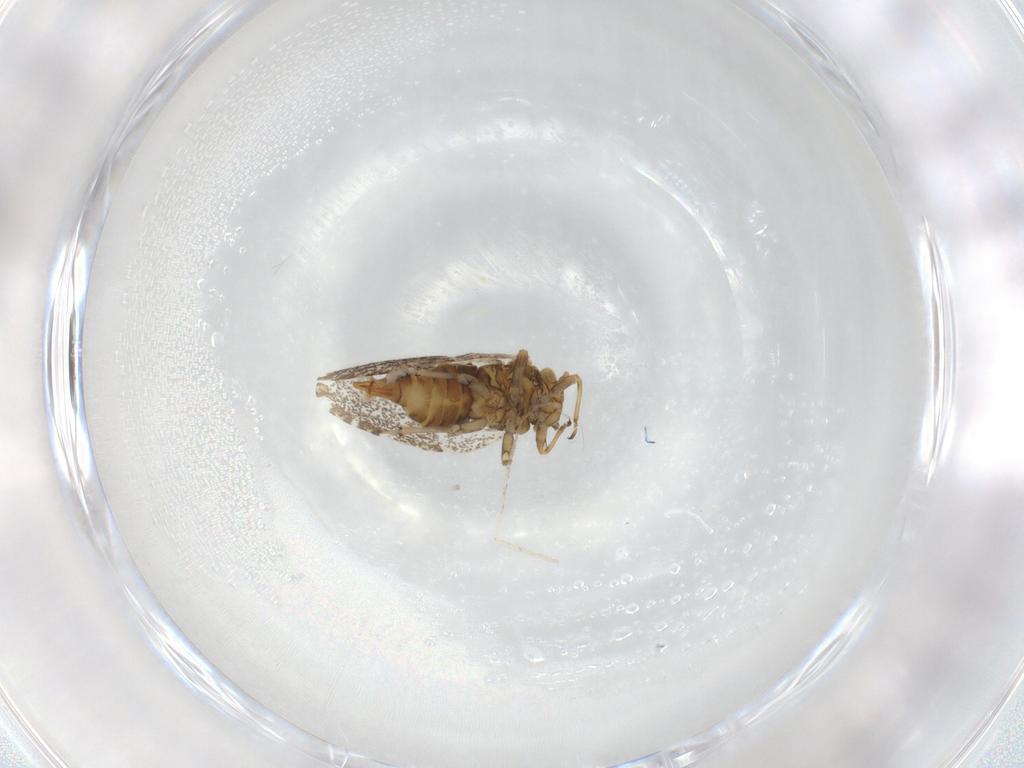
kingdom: Animalia
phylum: Arthropoda
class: Insecta
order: Hemiptera
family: Psylloidea_incertae_sedis
